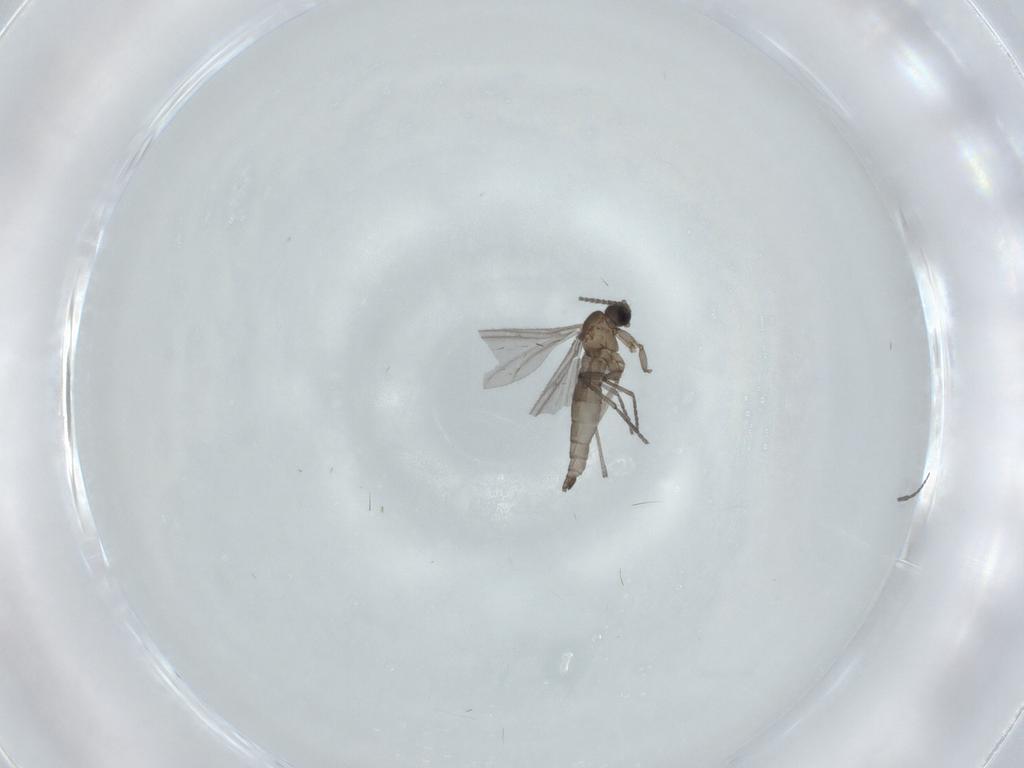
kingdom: Animalia
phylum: Arthropoda
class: Insecta
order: Diptera
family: Sciaridae
